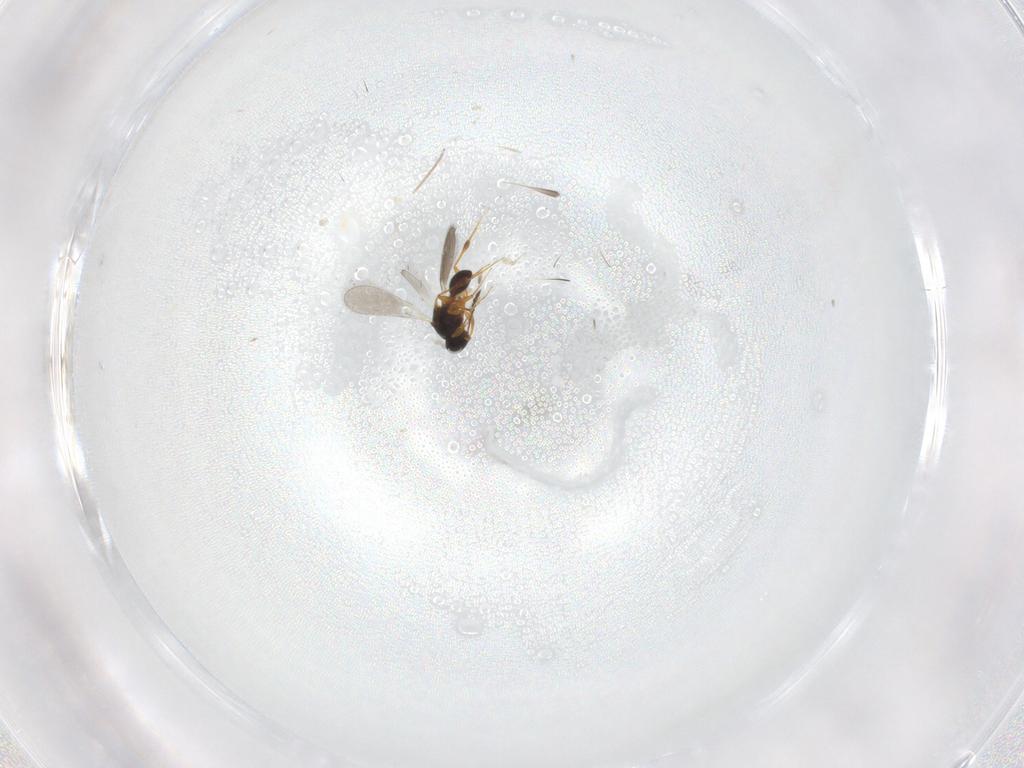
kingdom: Animalia
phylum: Arthropoda
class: Insecta
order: Hymenoptera
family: Platygastridae
